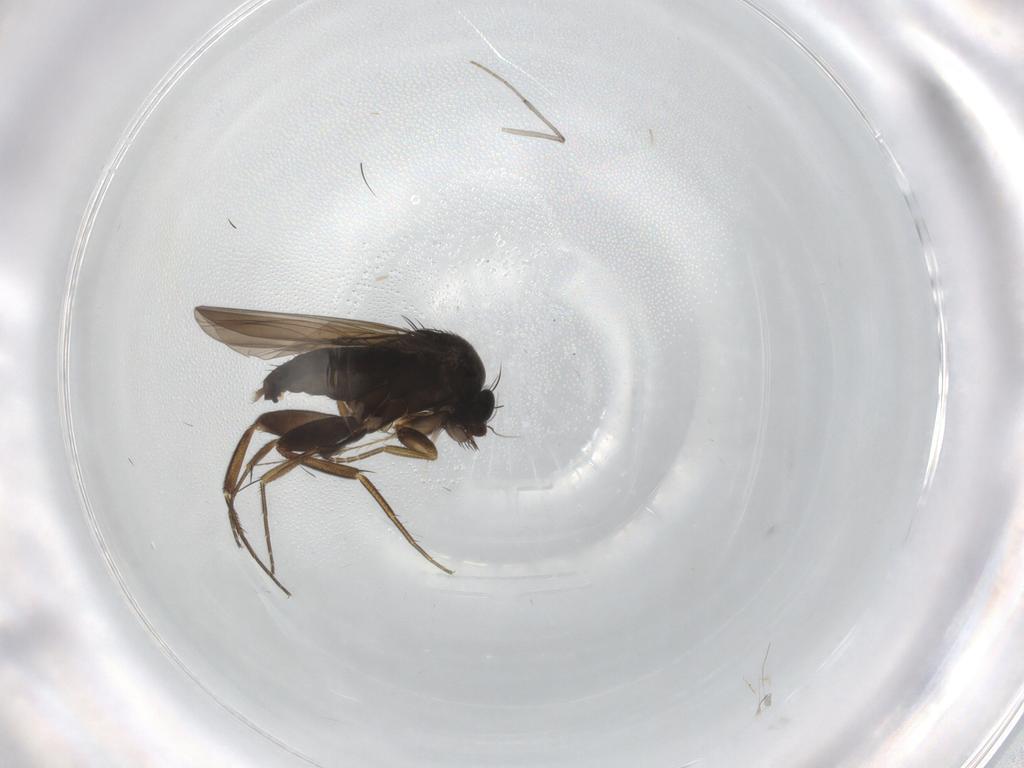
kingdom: Animalia
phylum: Arthropoda
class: Insecta
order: Diptera
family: Phoridae
